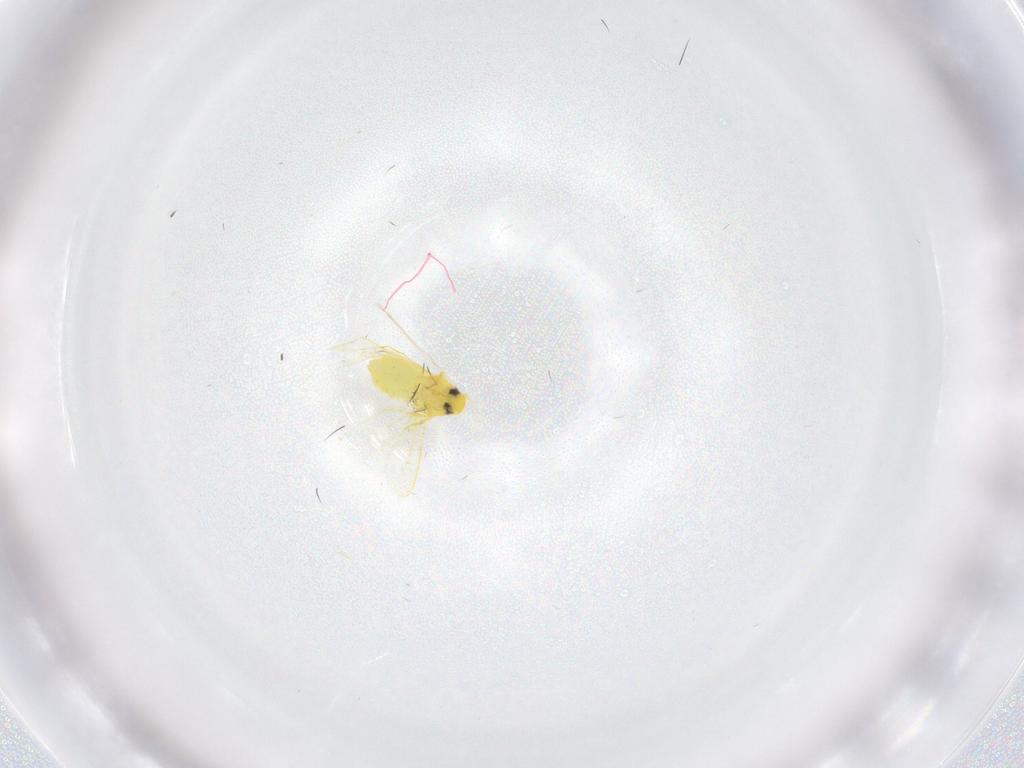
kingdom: Animalia
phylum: Arthropoda
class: Insecta
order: Hemiptera
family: Aleyrodidae
